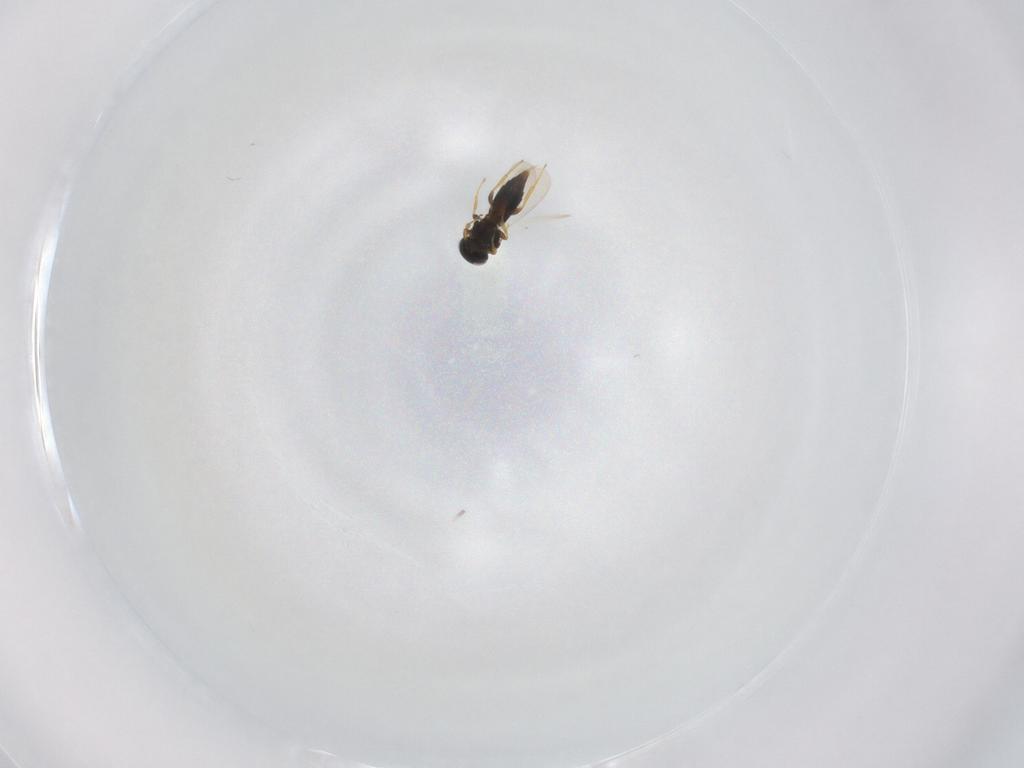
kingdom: Animalia
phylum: Arthropoda
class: Insecta
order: Hymenoptera
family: Platygastridae
